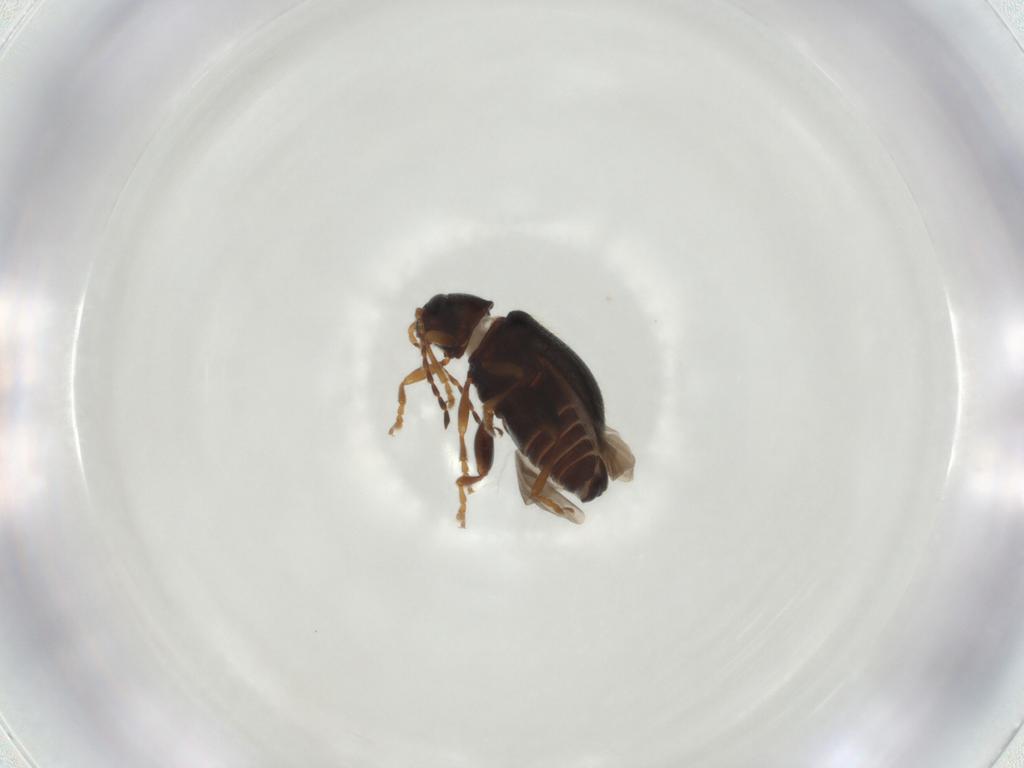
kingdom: Animalia
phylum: Arthropoda
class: Insecta
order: Coleoptera
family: Chrysomelidae
